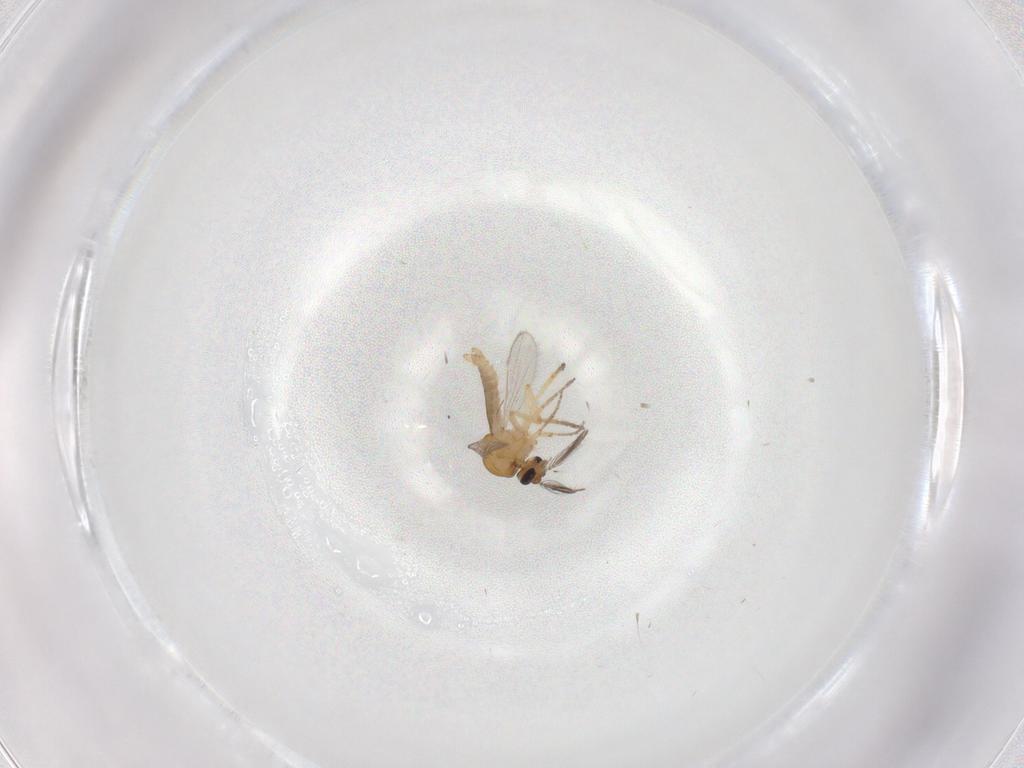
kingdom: Animalia
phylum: Arthropoda
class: Insecta
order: Diptera
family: Ceratopogonidae
